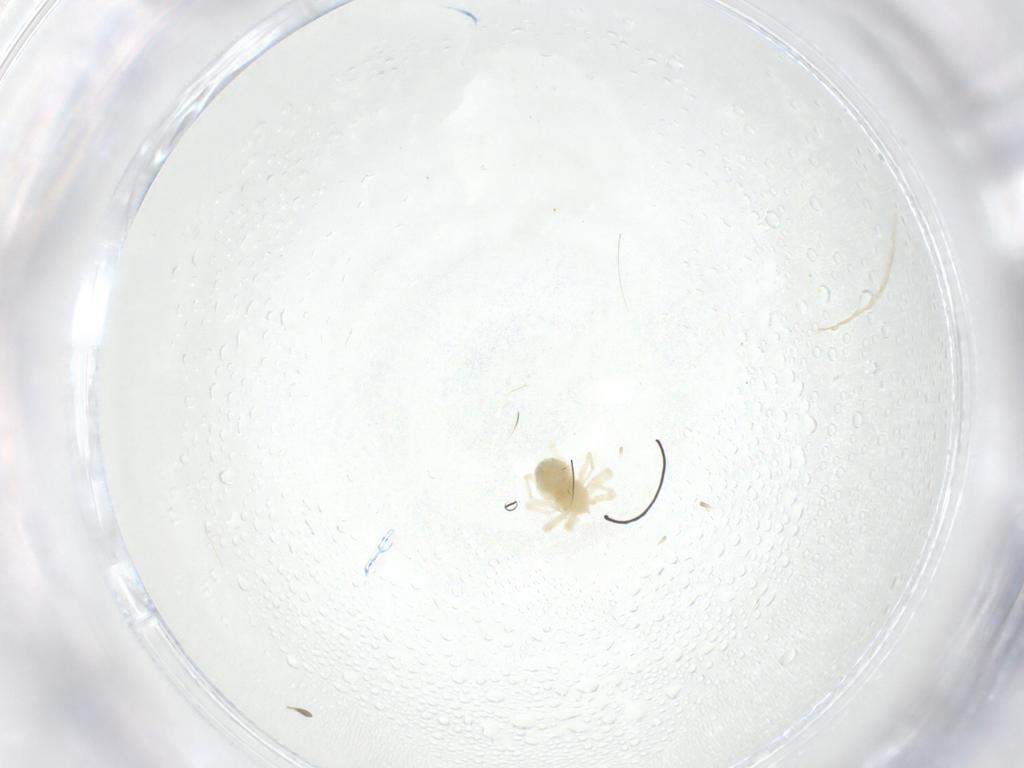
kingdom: Animalia
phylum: Arthropoda
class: Arachnida
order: Trombidiformes
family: Anystidae
